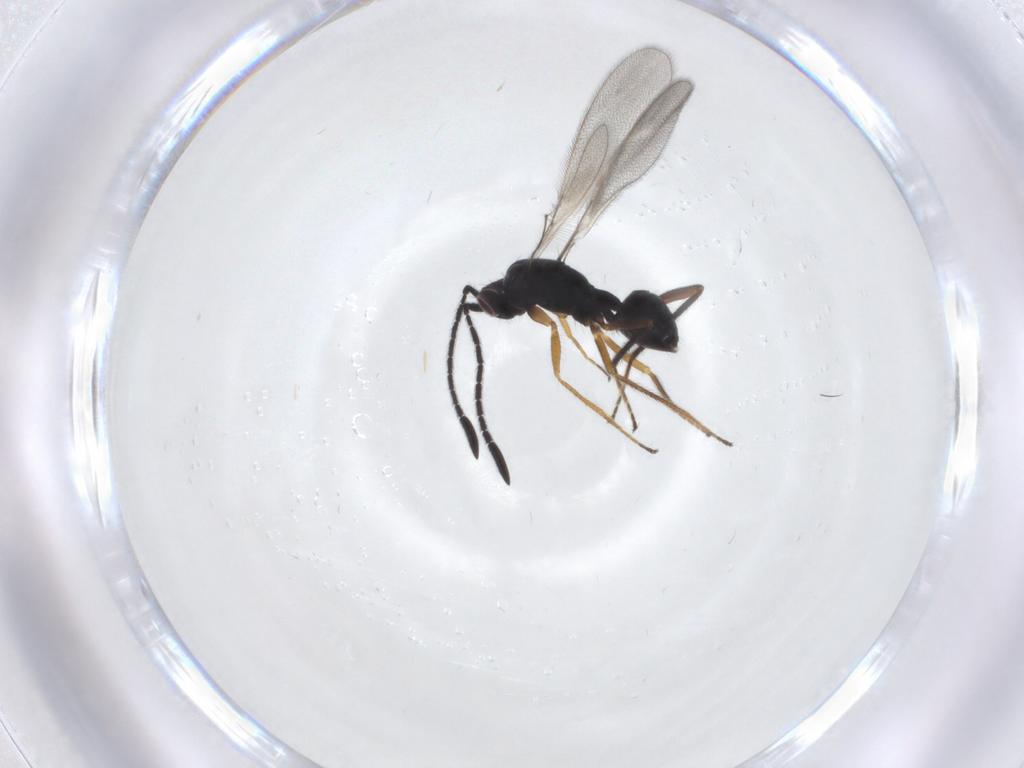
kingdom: Animalia
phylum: Arthropoda
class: Insecta
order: Hymenoptera
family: Mymaridae
